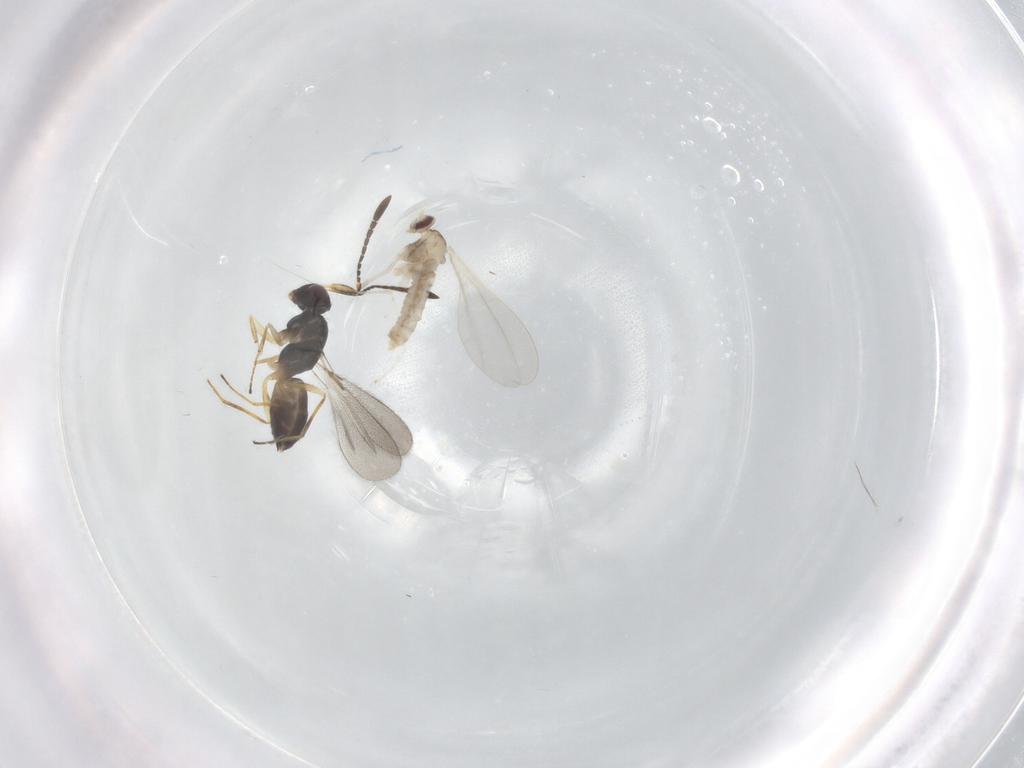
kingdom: Animalia
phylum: Arthropoda
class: Insecta
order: Diptera
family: Cecidomyiidae
